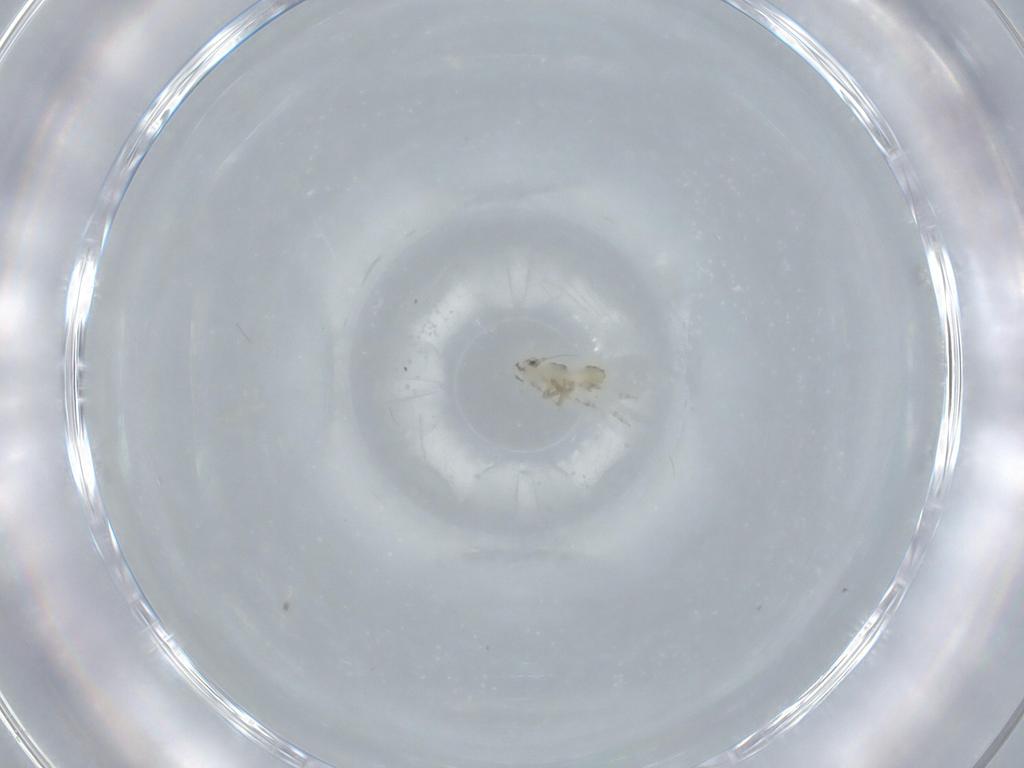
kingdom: Animalia
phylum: Arthropoda
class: Insecta
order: Hemiptera
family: Delphacidae
